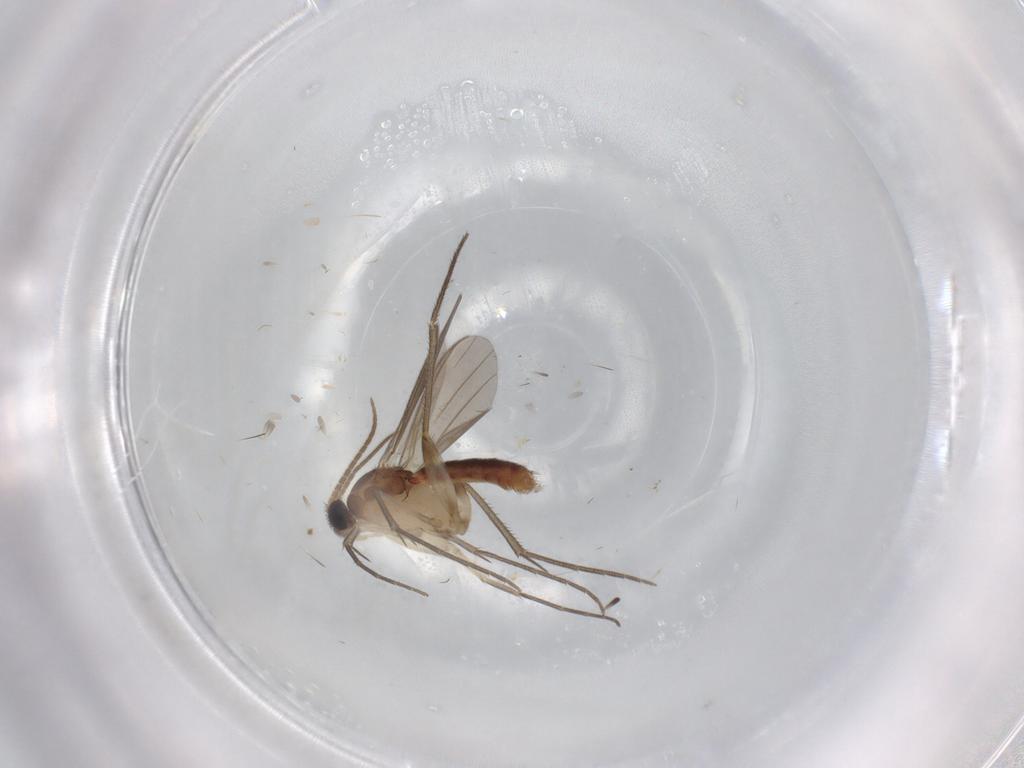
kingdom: Animalia
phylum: Arthropoda
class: Insecta
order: Diptera
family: Mycetophilidae
